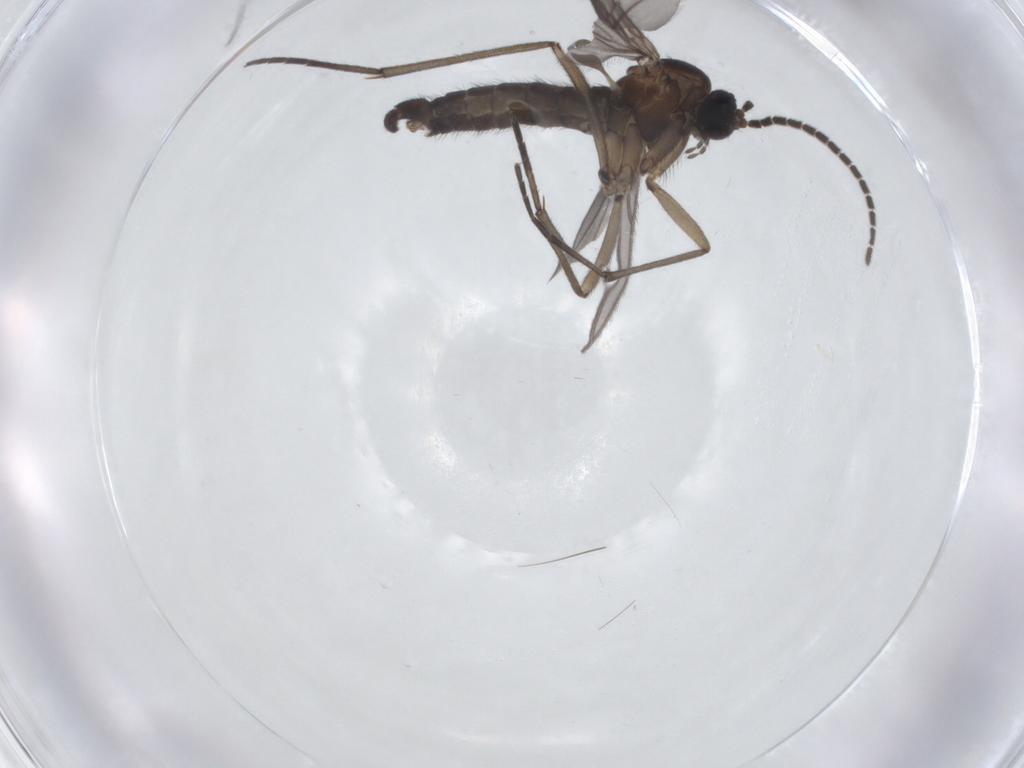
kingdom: Animalia
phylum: Arthropoda
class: Insecta
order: Diptera
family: Sciaridae
